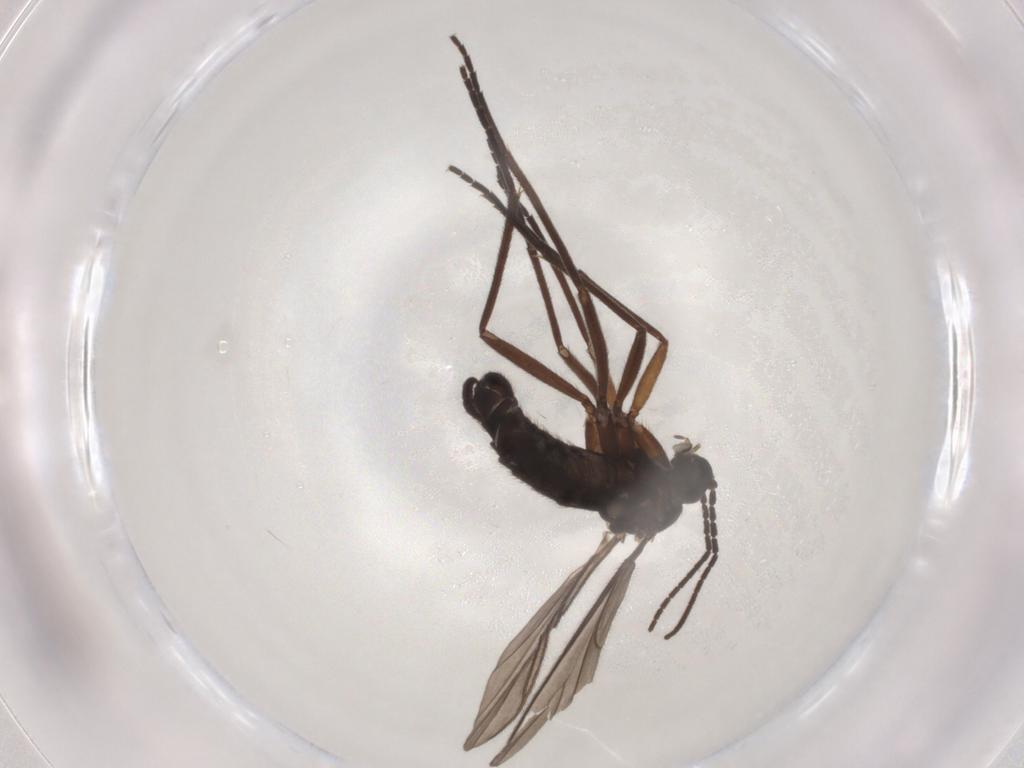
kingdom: Animalia
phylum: Arthropoda
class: Insecta
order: Diptera
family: Sciaridae
